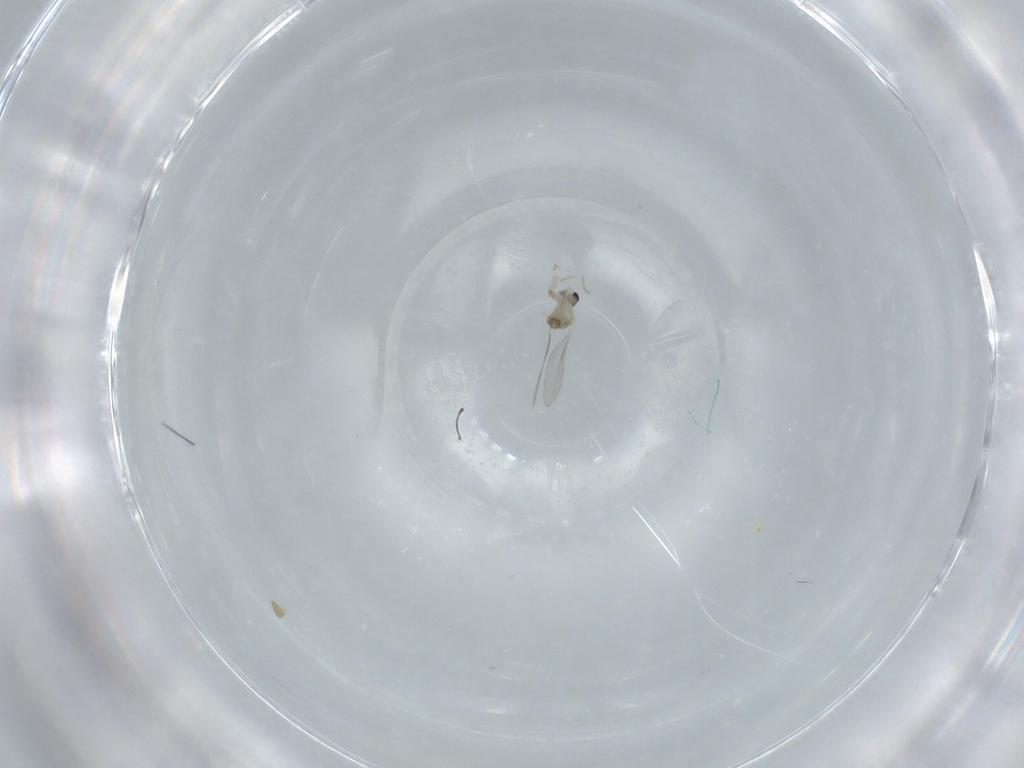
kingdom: Animalia
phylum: Arthropoda
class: Insecta
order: Diptera
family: Cecidomyiidae
